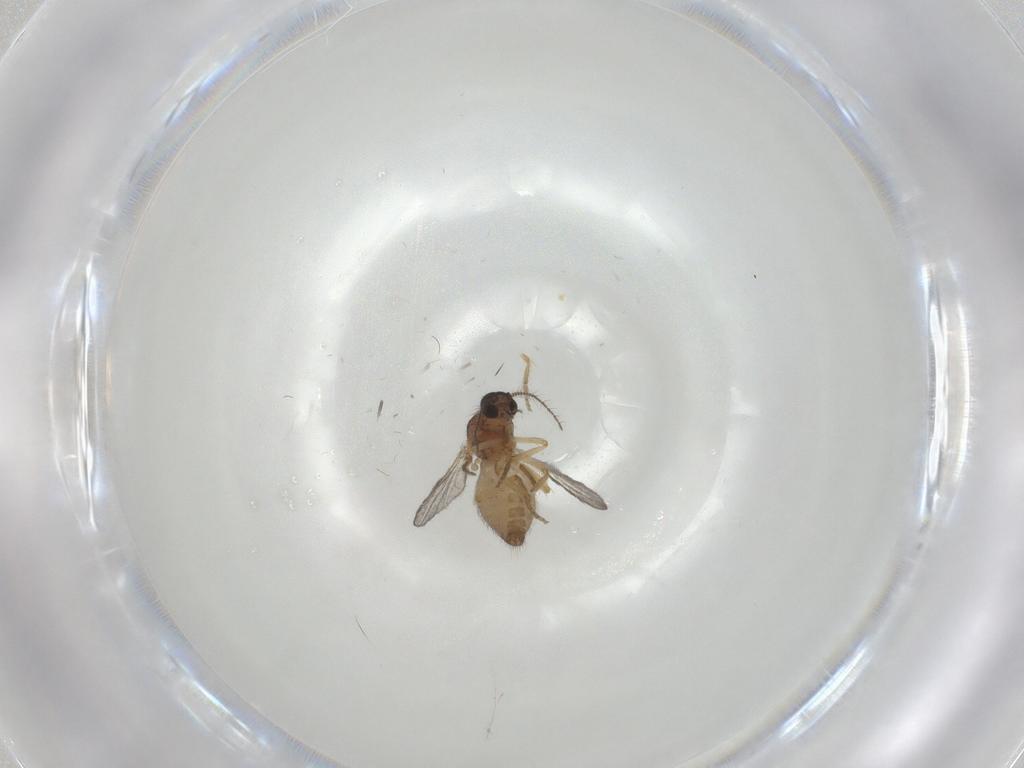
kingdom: Animalia
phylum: Arthropoda
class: Insecta
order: Diptera
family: Ceratopogonidae
